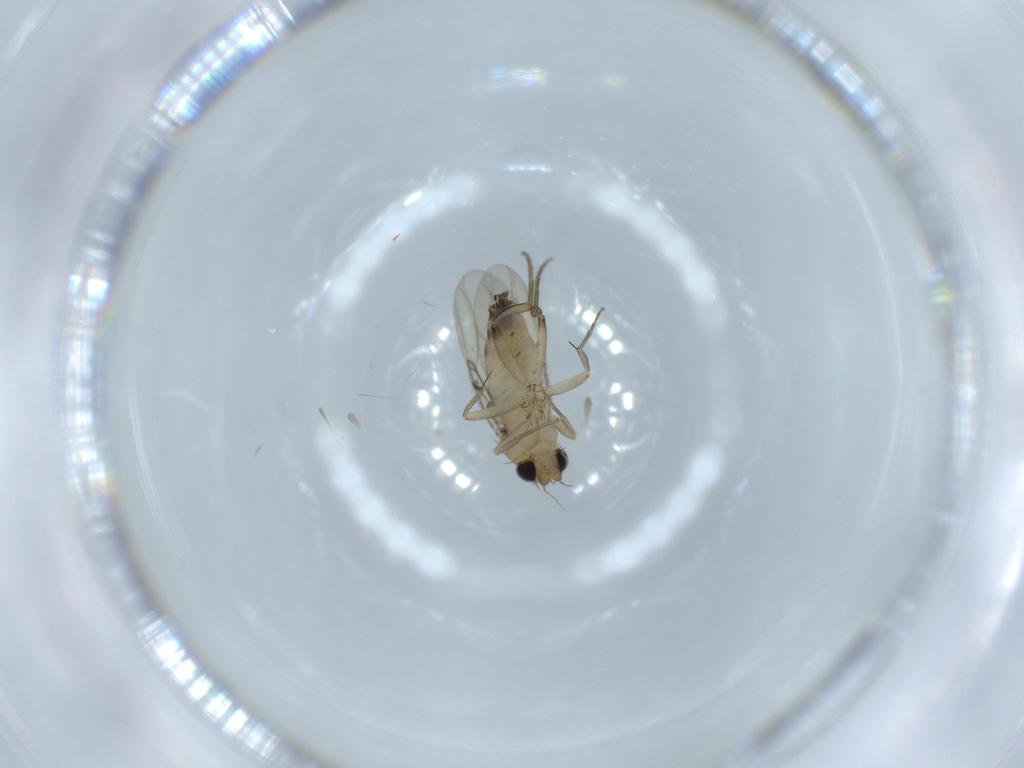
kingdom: Animalia
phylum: Arthropoda
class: Insecta
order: Diptera
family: Phoridae
